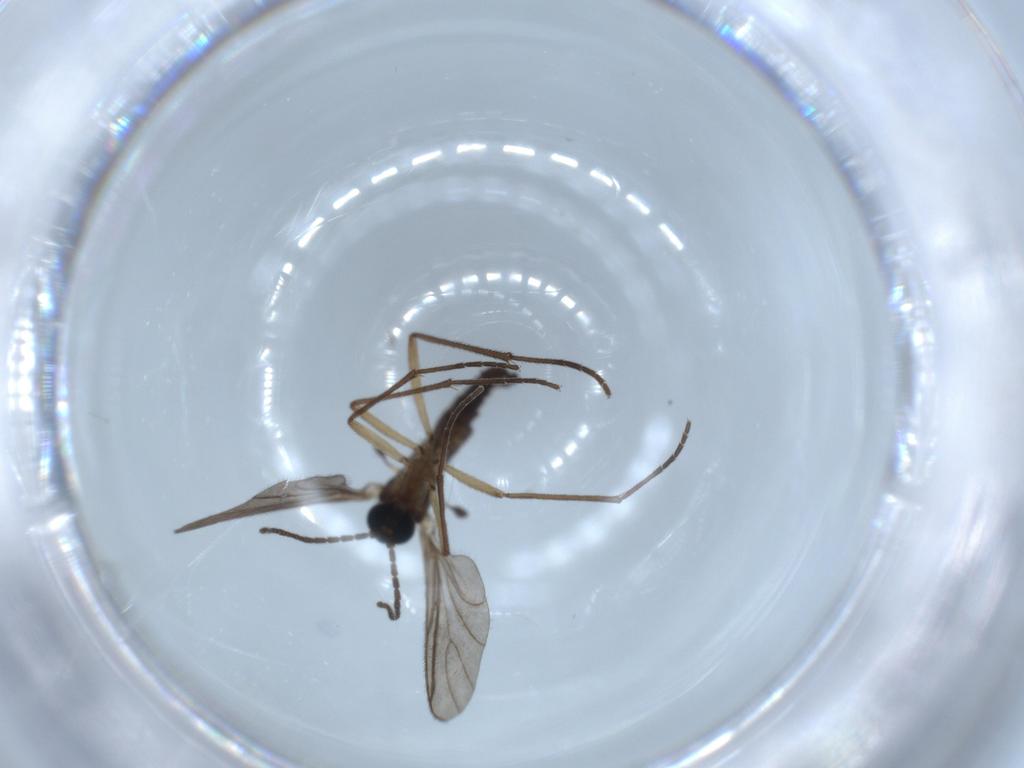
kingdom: Animalia
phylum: Arthropoda
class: Insecta
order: Diptera
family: Sciaridae
